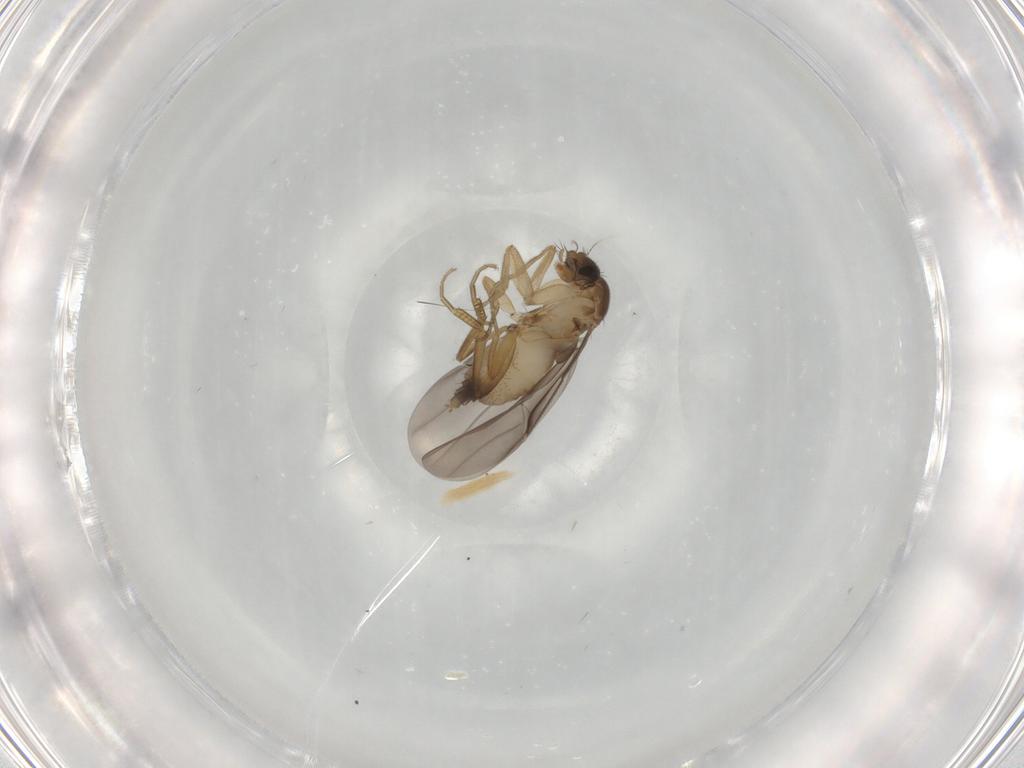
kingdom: Animalia
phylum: Arthropoda
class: Insecta
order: Diptera
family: Phoridae
